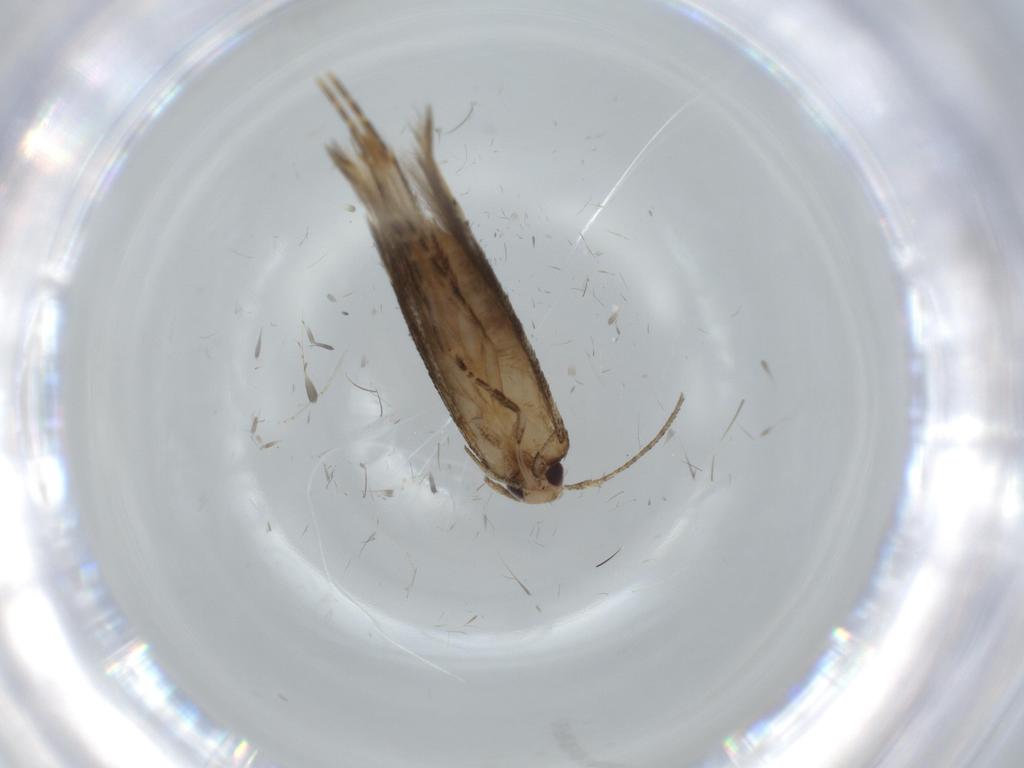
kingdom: Animalia
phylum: Arthropoda
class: Insecta
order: Lepidoptera
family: Stathmopodidae
